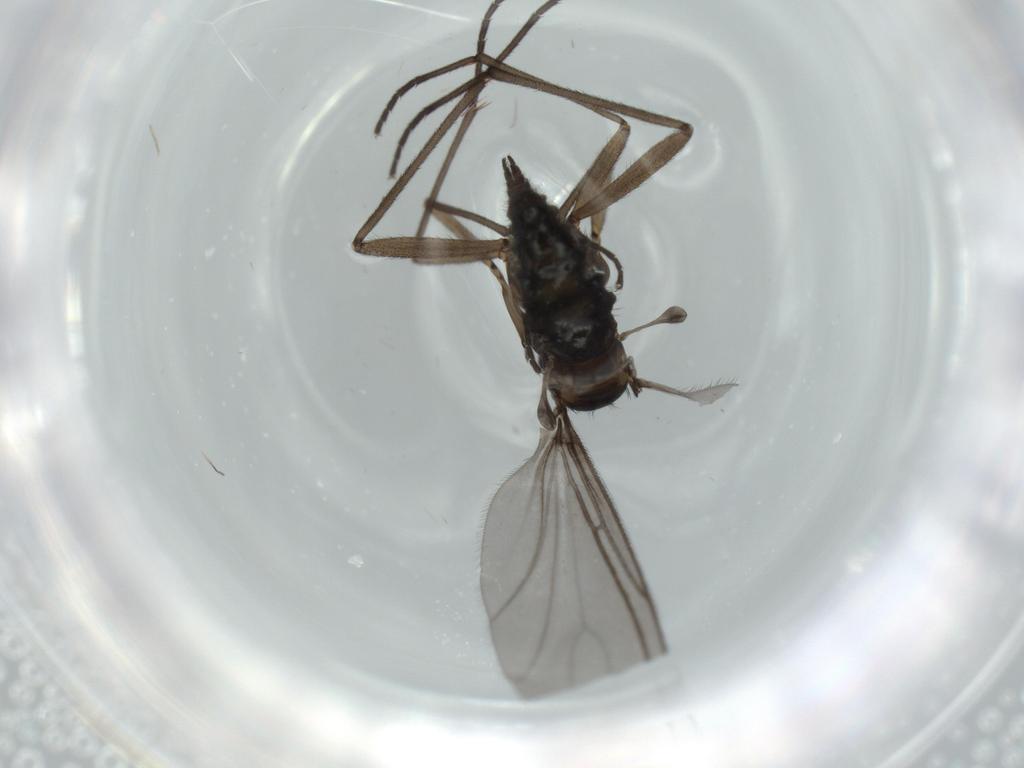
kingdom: Animalia
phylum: Arthropoda
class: Insecta
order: Diptera
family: Sciaridae
